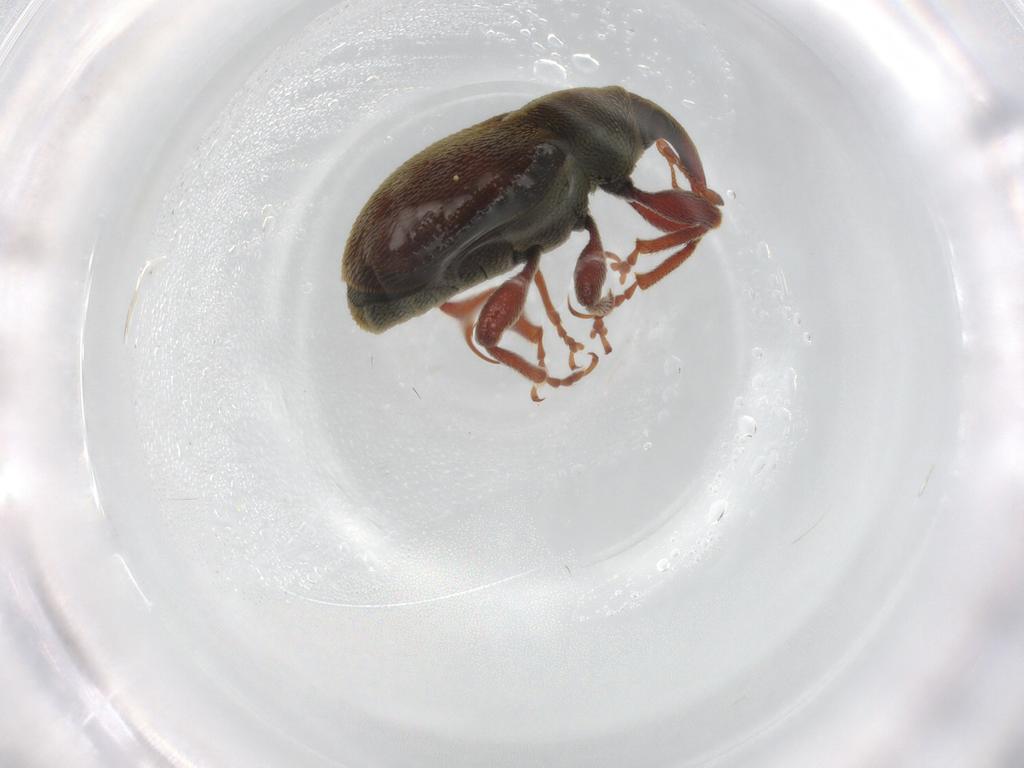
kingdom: Animalia
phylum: Arthropoda
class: Insecta
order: Coleoptera
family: Curculionidae
